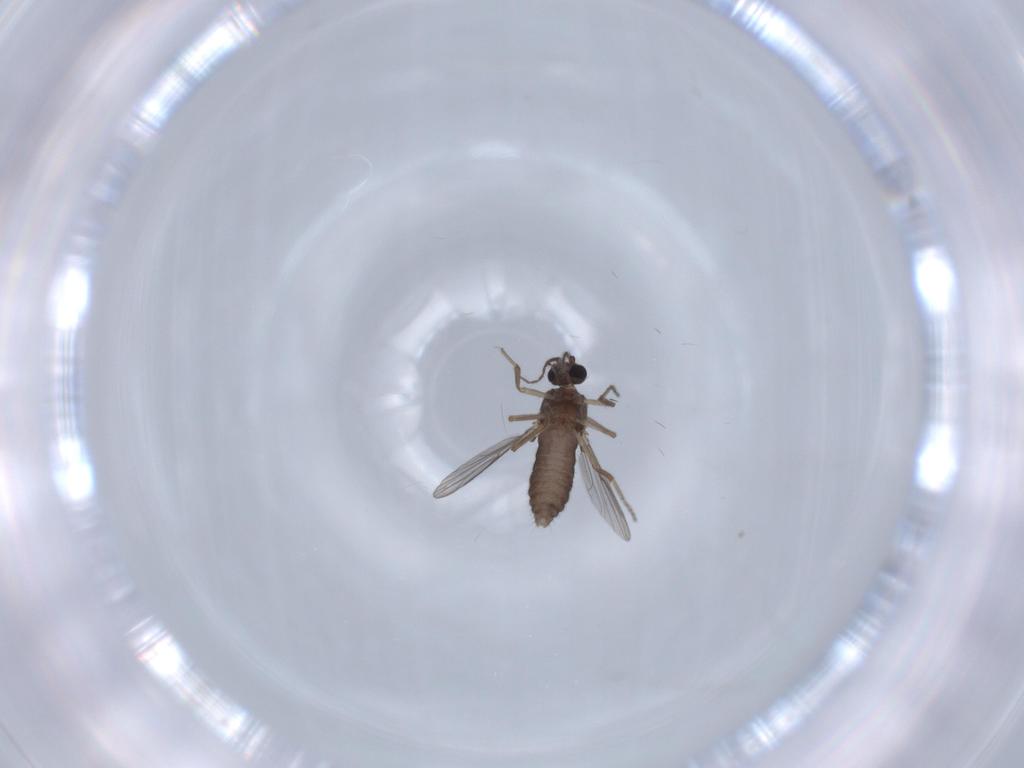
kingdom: Animalia
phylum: Arthropoda
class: Insecta
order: Diptera
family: Ceratopogonidae
